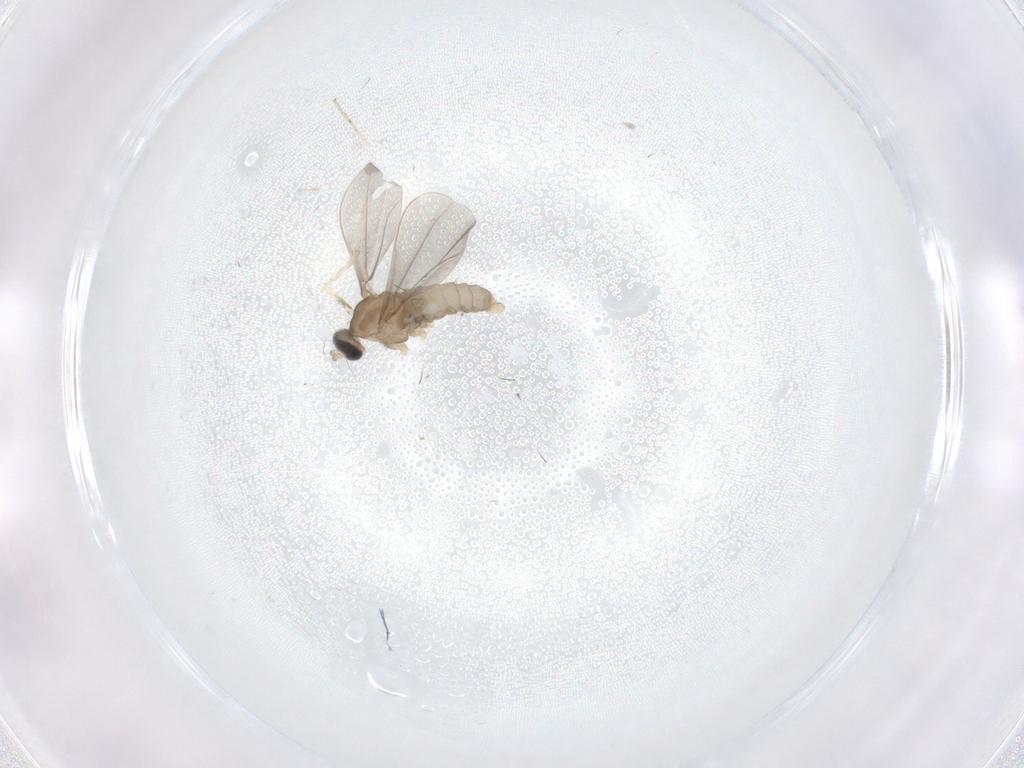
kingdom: Animalia
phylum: Arthropoda
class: Insecta
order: Diptera
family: Cecidomyiidae
